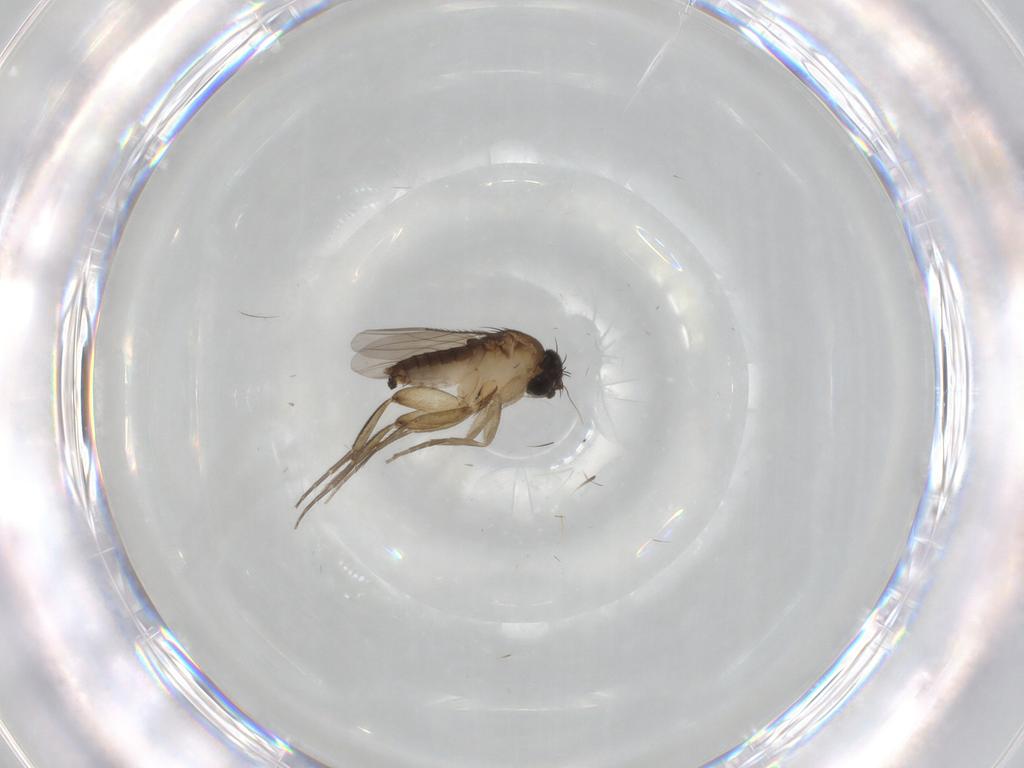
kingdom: Animalia
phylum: Arthropoda
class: Insecta
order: Diptera
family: Phoridae
